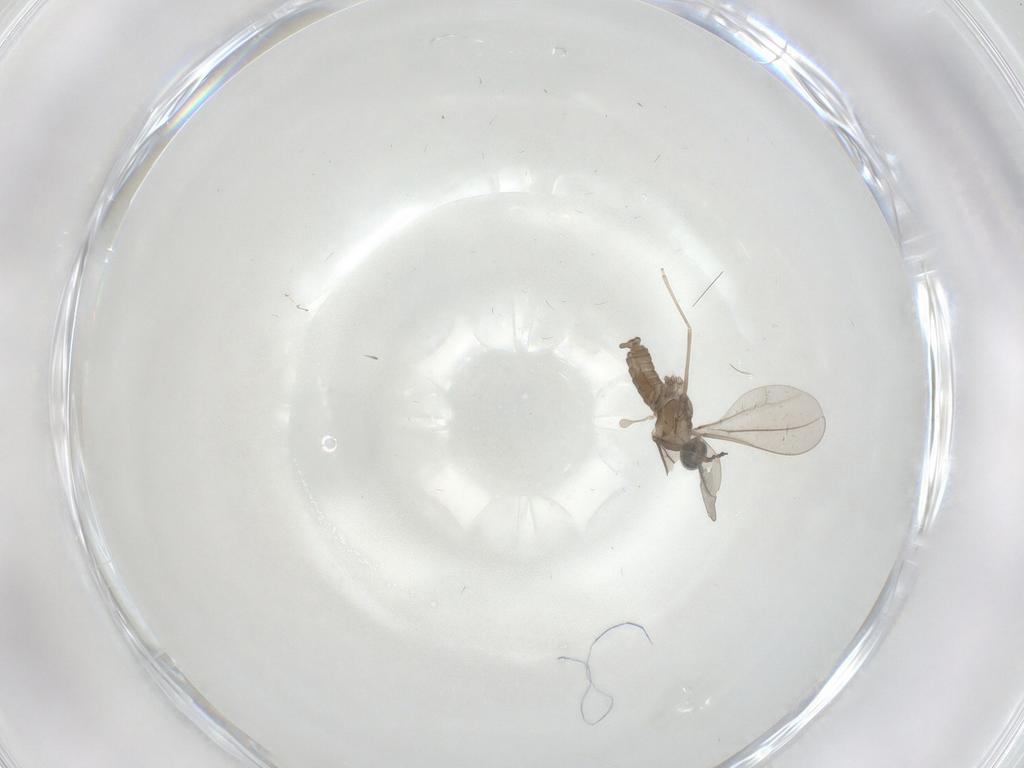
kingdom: Animalia
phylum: Arthropoda
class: Insecta
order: Diptera
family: Cecidomyiidae
